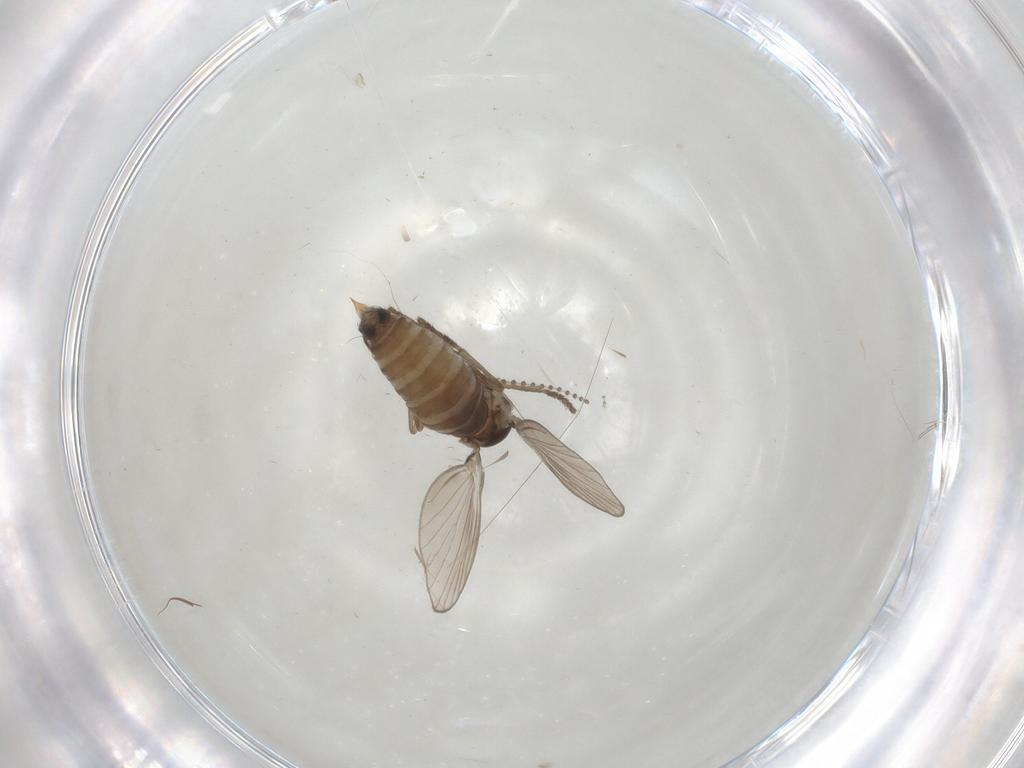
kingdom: Animalia
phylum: Arthropoda
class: Insecta
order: Diptera
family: Psychodidae
